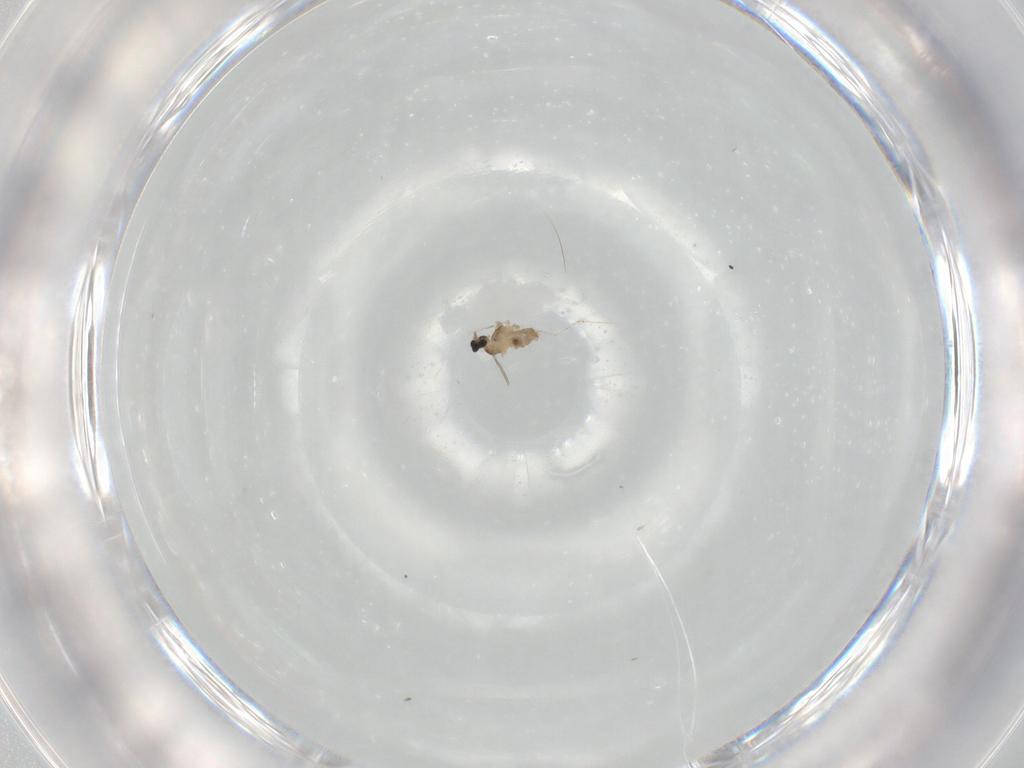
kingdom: Animalia
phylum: Arthropoda
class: Insecta
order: Diptera
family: Cecidomyiidae
